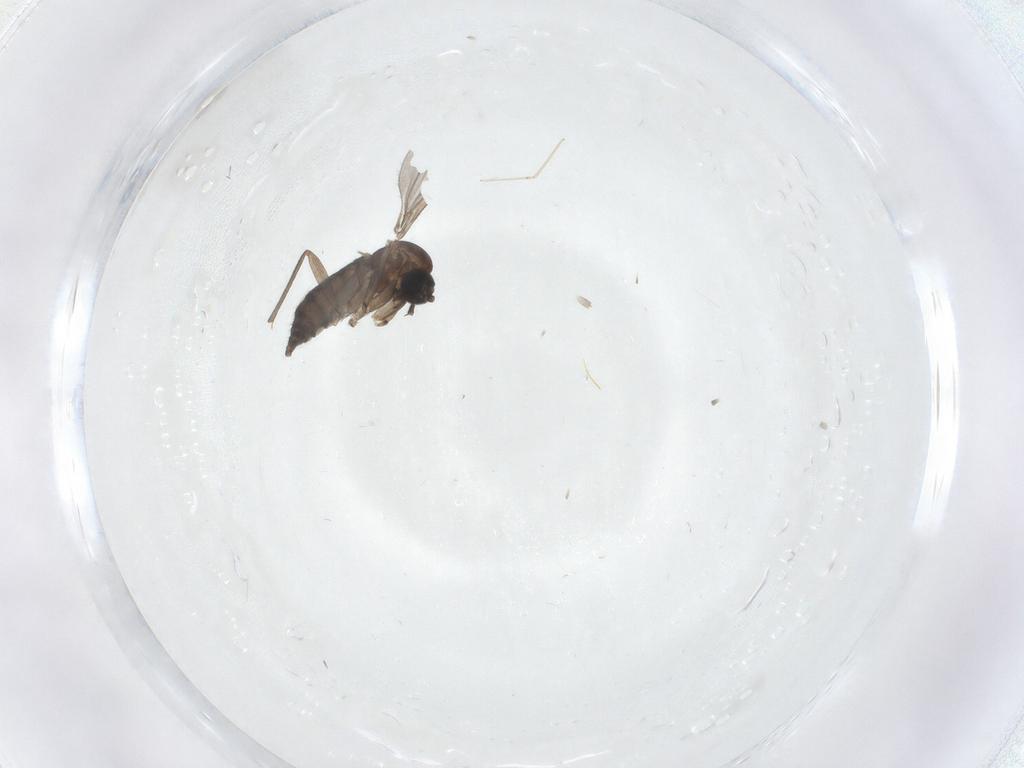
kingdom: Animalia
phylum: Arthropoda
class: Insecta
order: Diptera
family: Sciaridae
